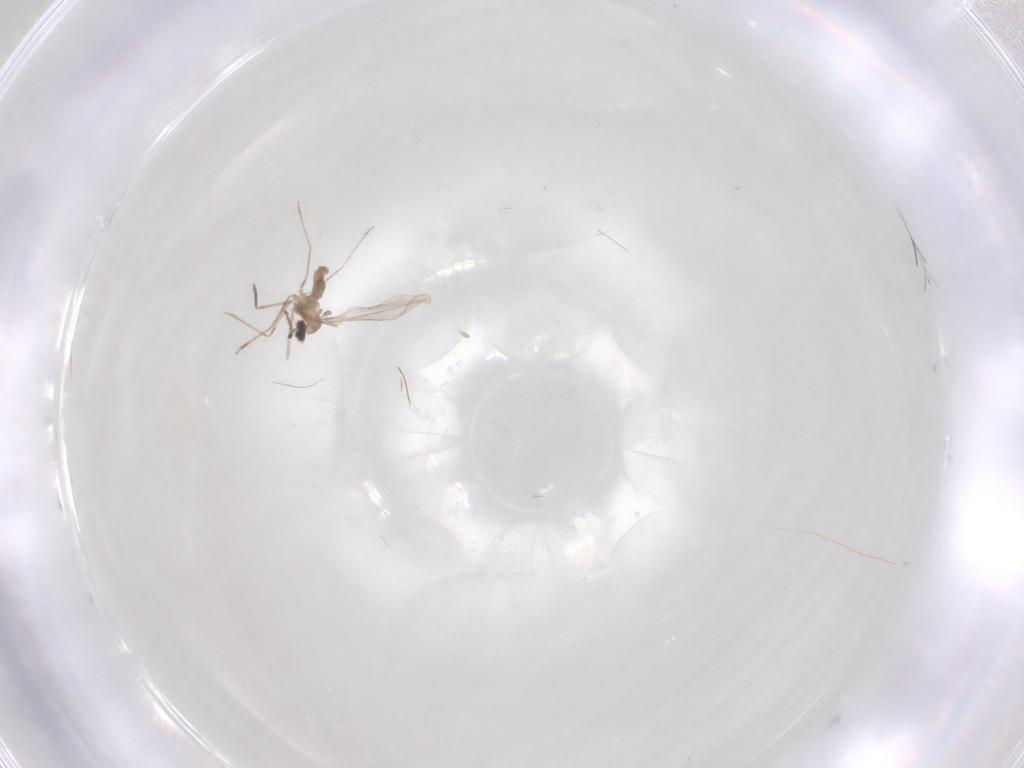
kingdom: Animalia
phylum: Arthropoda
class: Insecta
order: Diptera
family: Cecidomyiidae
